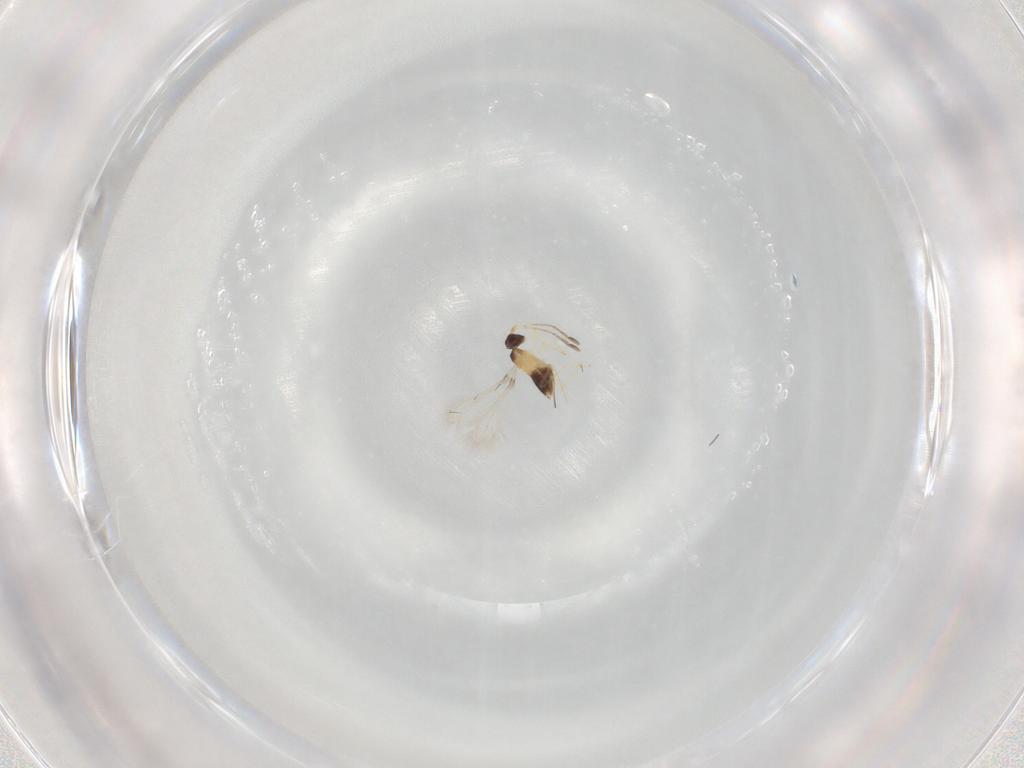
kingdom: Animalia
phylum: Arthropoda
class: Insecta
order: Hymenoptera
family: Mymaridae
